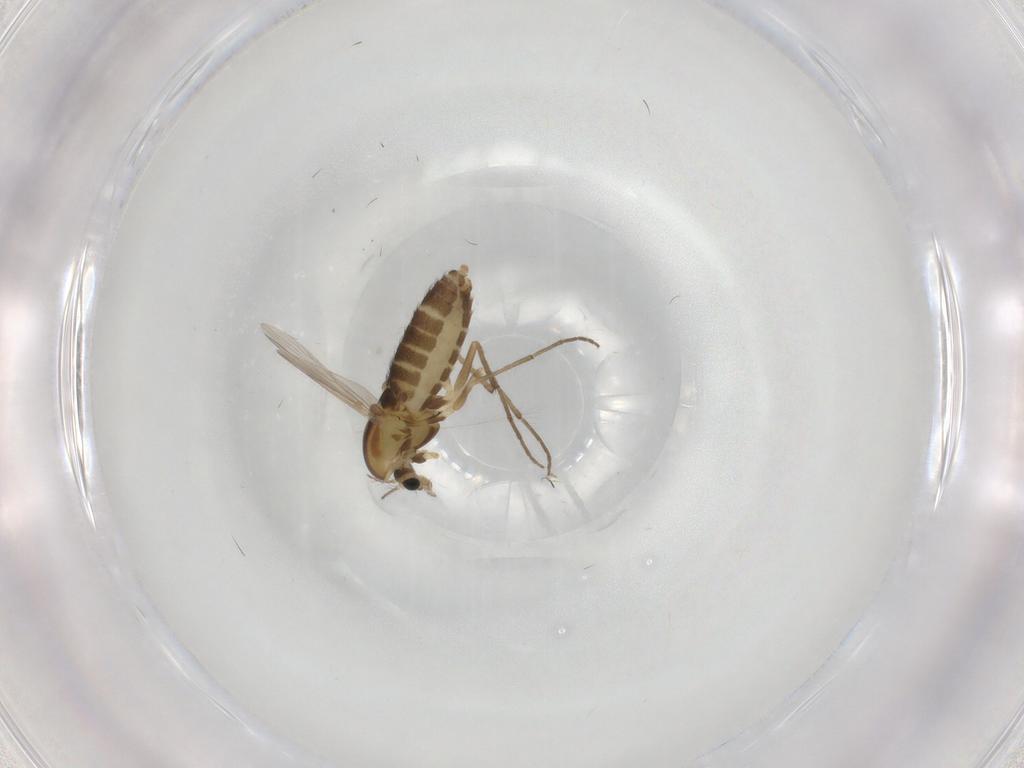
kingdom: Animalia
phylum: Arthropoda
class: Insecta
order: Diptera
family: Chironomidae
